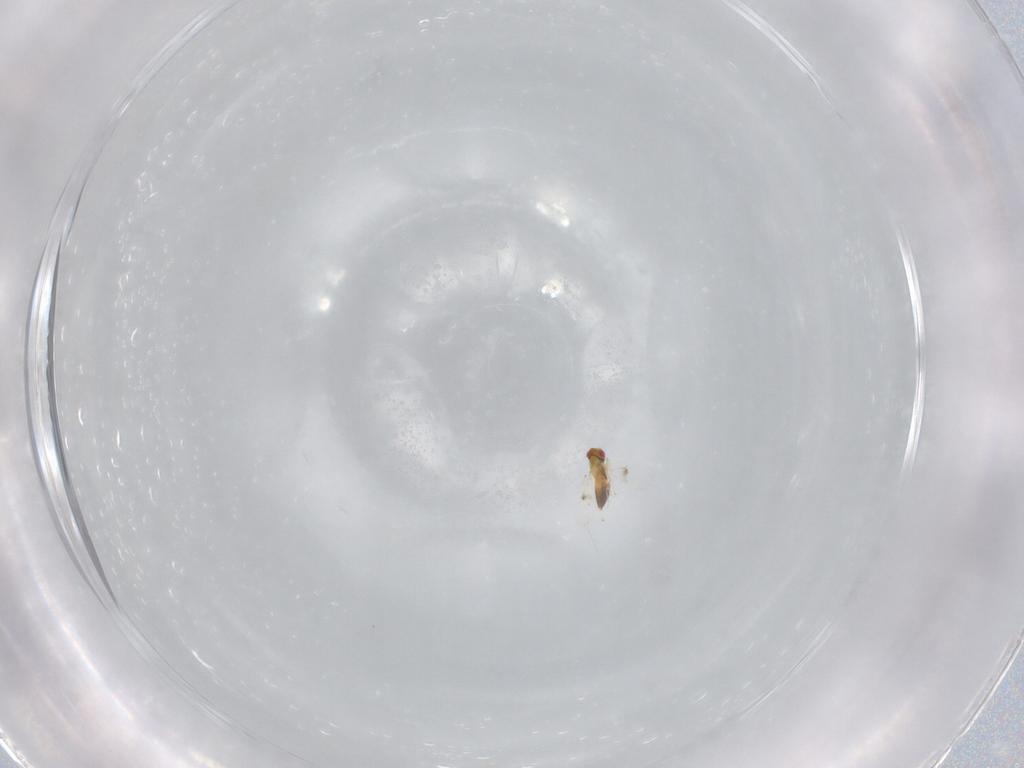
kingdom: Animalia
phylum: Arthropoda
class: Insecta
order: Hymenoptera
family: Trichogrammatidae
